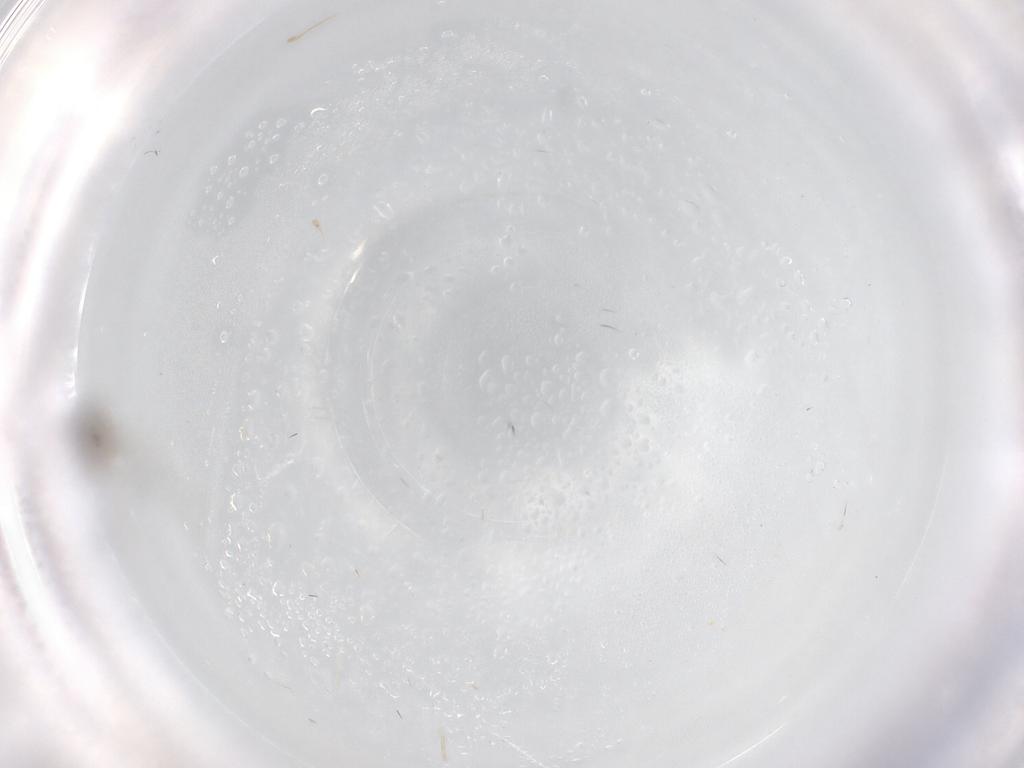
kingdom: Animalia
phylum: Arthropoda
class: Insecta
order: Diptera
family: Cecidomyiidae
